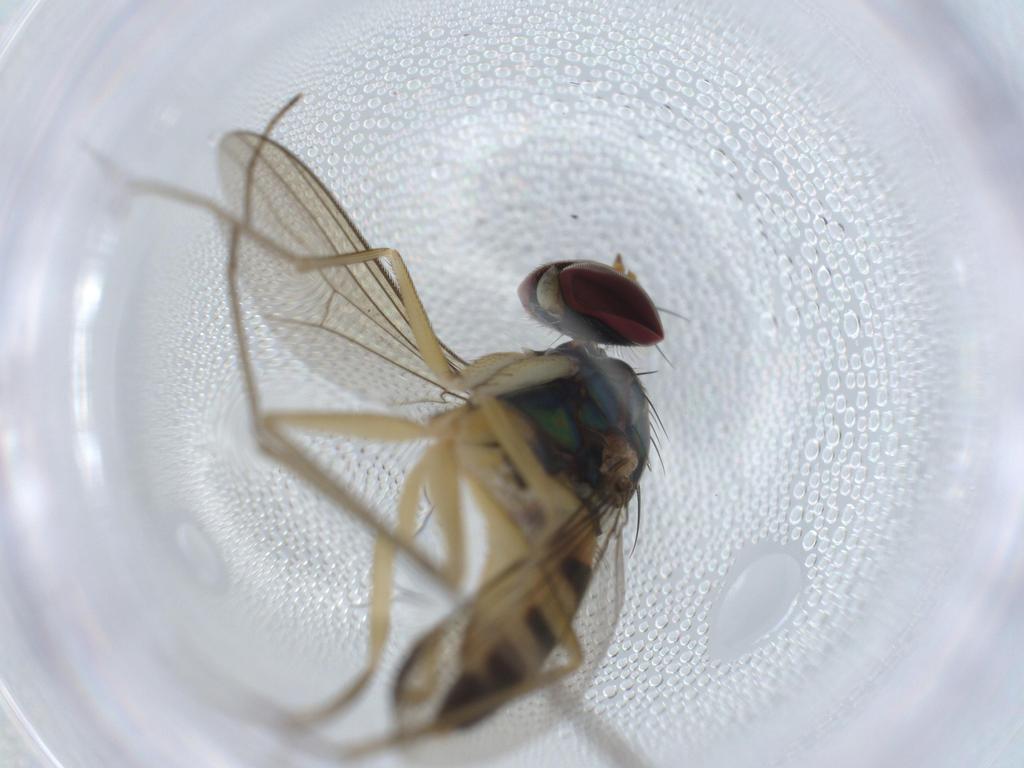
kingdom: Animalia
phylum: Arthropoda
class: Insecta
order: Diptera
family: Dolichopodidae
